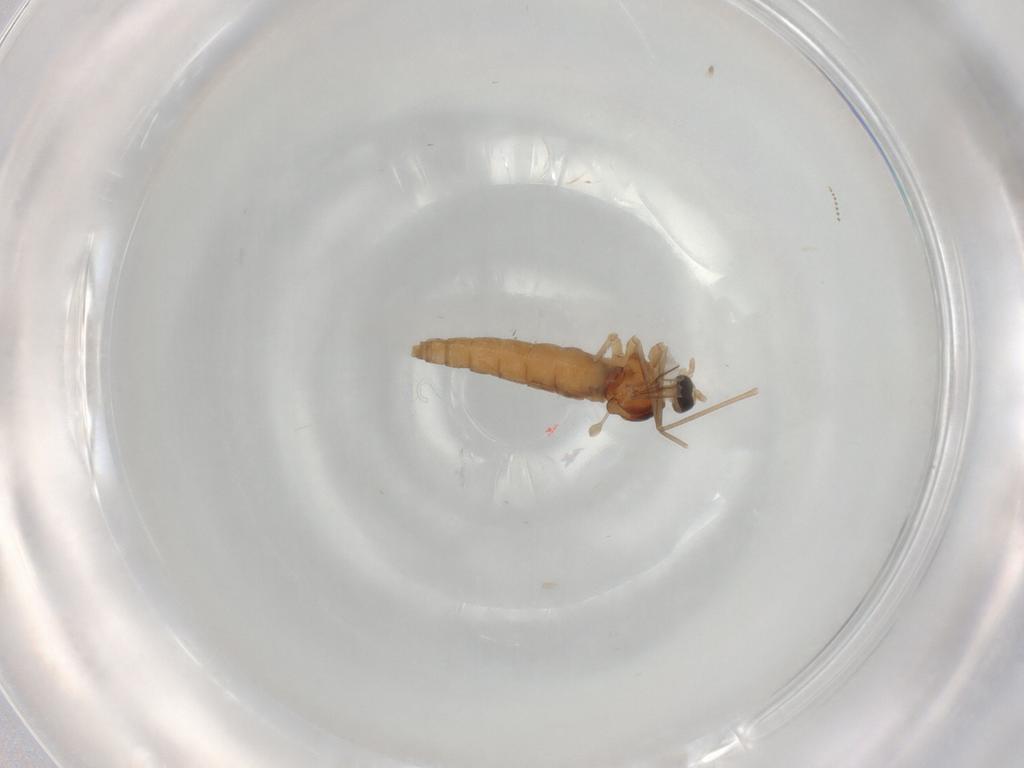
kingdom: Animalia
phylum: Arthropoda
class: Insecta
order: Diptera
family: Cecidomyiidae
